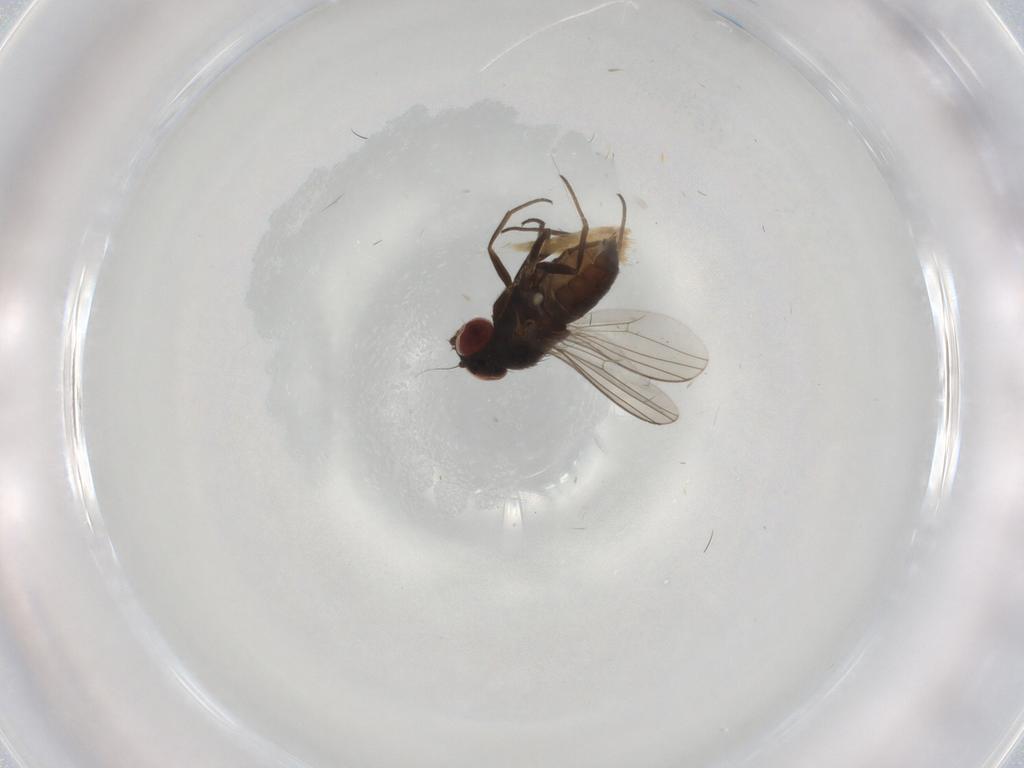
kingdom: Animalia
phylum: Arthropoda
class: Insecta
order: Diptera
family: Dolichopodidae
